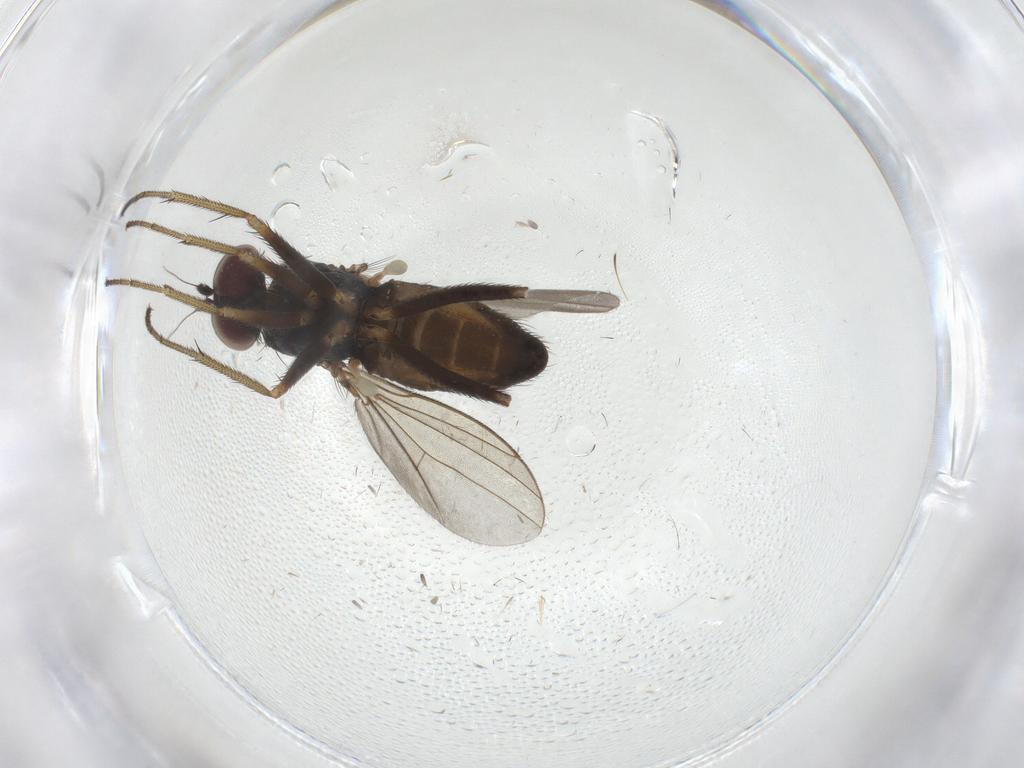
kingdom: Animalia
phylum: Arthropoda
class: Insecta
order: Diptera
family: Dolichopodidae
